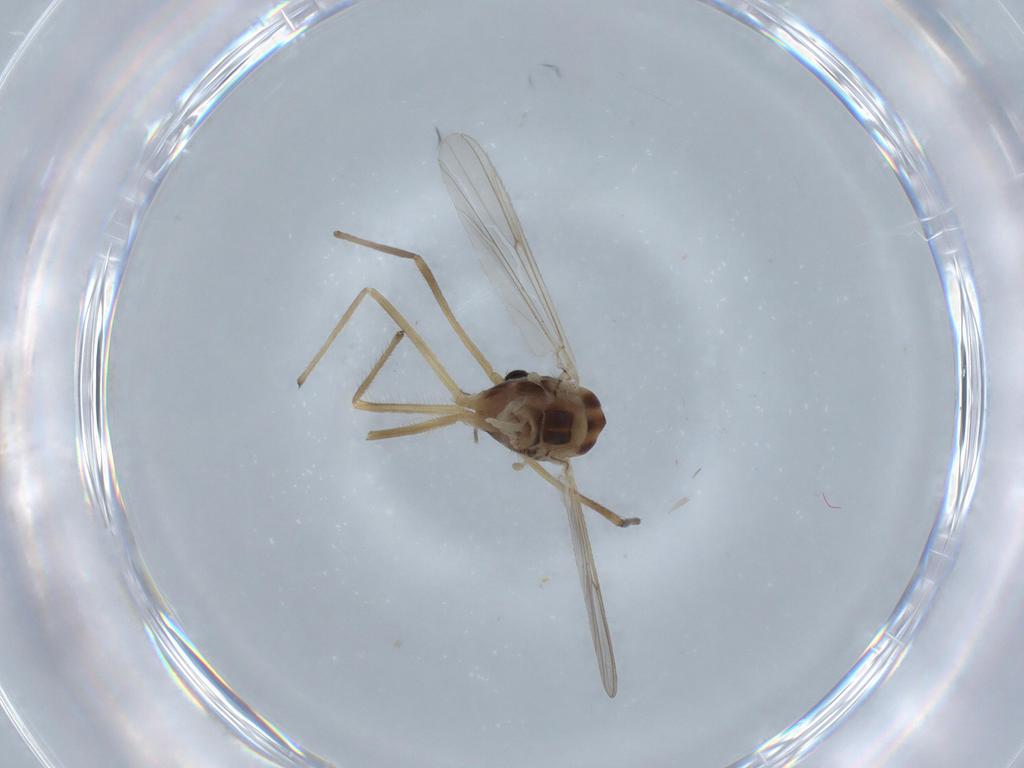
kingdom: Animalia
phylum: Arthropoda
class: Insecta
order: Diptera
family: Dolichopodidae
